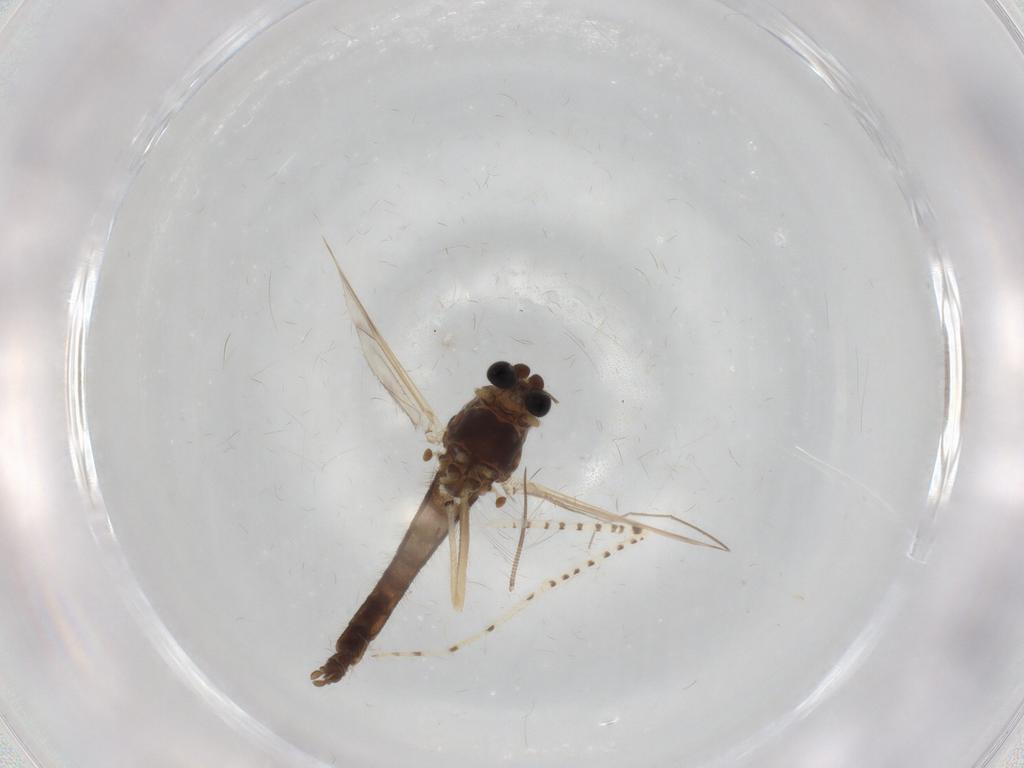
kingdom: Animalia
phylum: Arthropoda
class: Insecta
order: Diptera
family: Chironomidae
